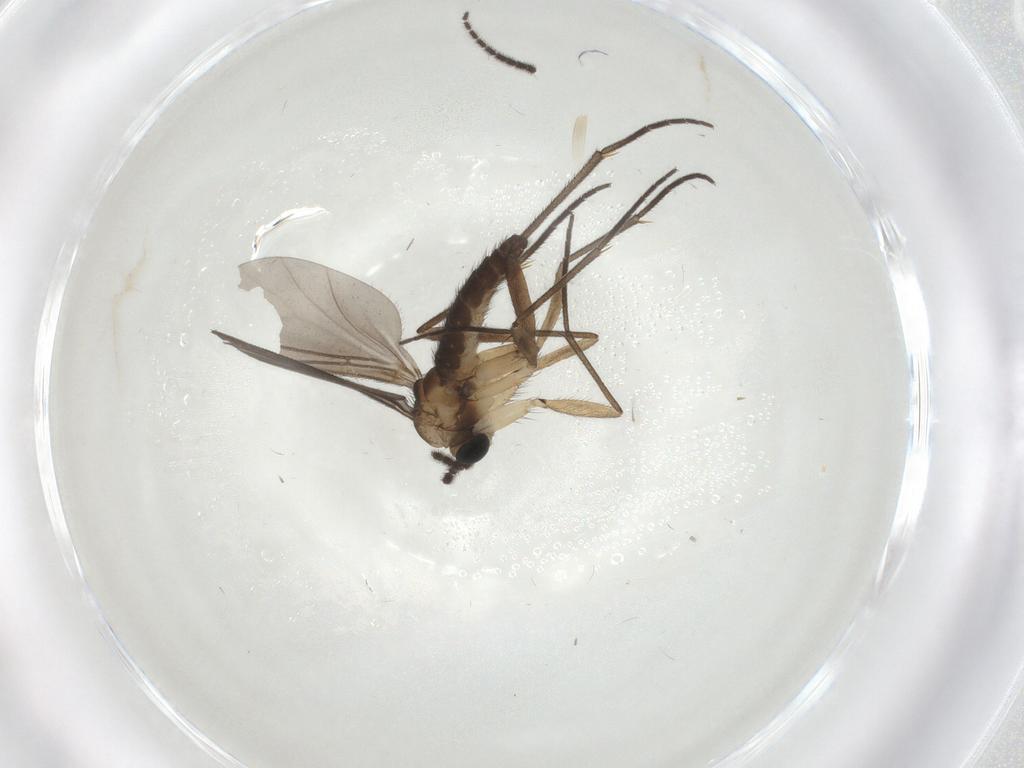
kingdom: Animalia
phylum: Arthropoda
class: Insecta
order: Diptera
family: Sciaridae
